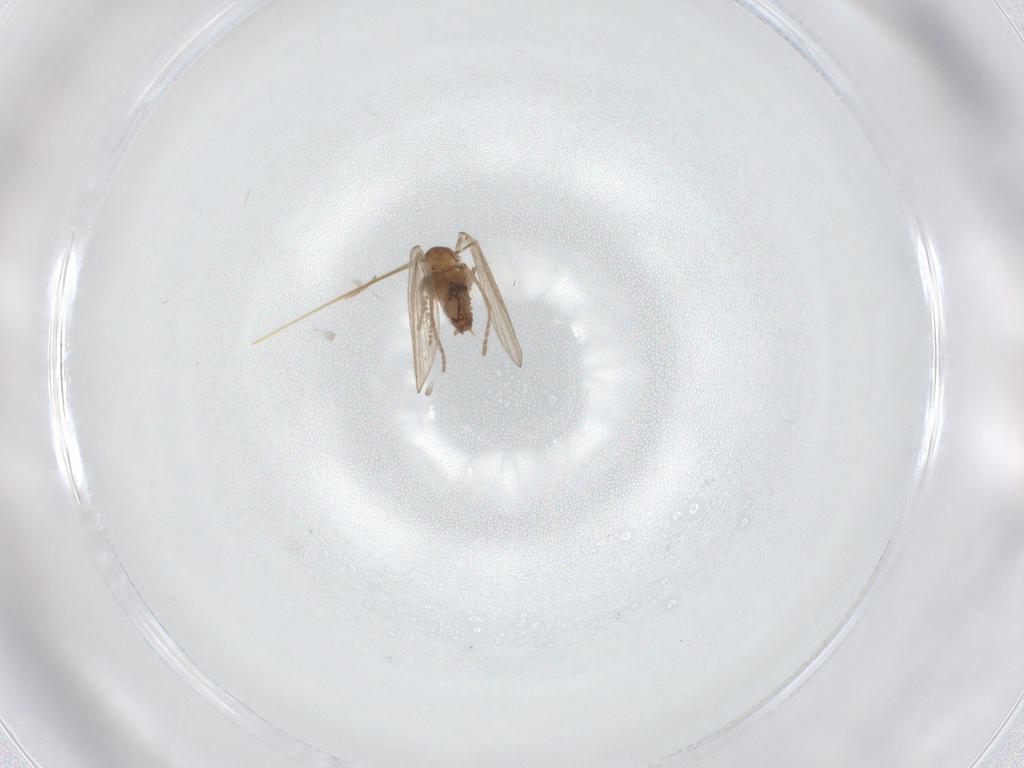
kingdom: Animalia
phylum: Arthropoda
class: Insecta
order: Diptera
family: Psychodidae
